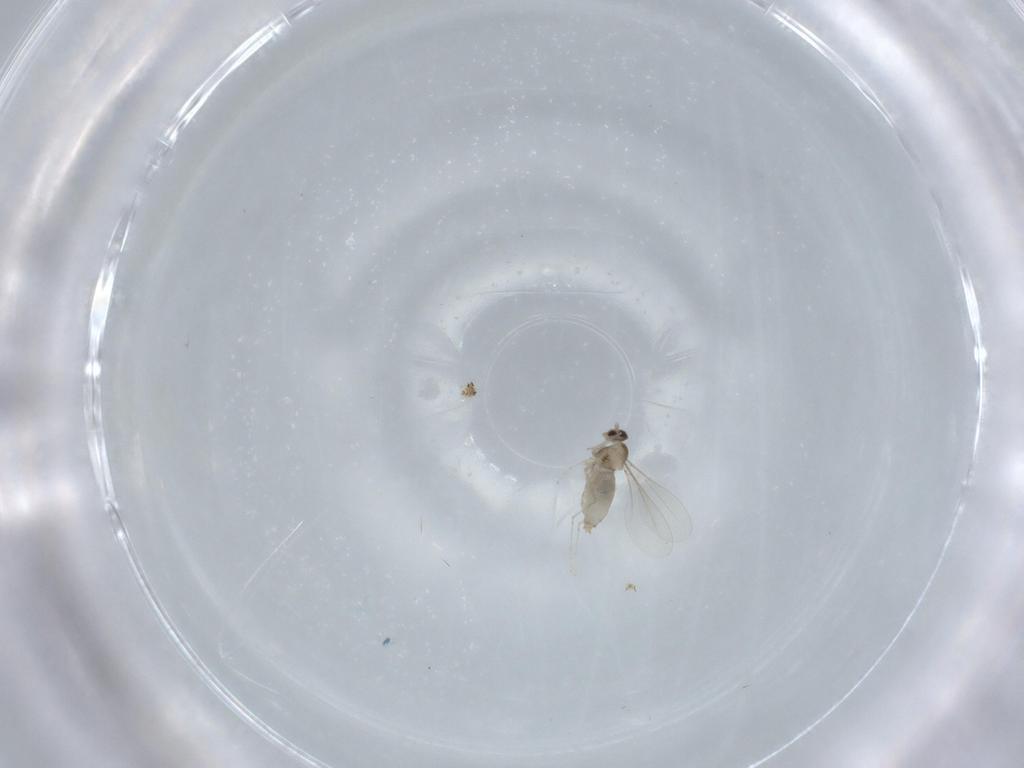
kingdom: Animalia
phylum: Arthropoda
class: Insecta
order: Diptera
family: Cecidomyiidae
